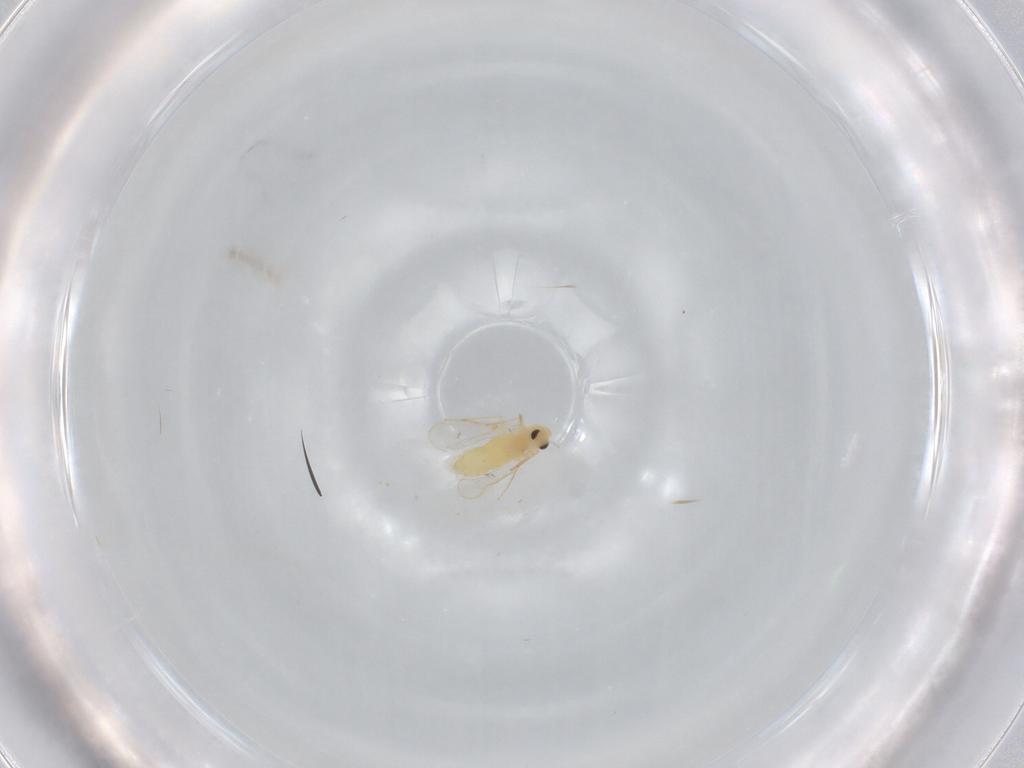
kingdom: Animalia
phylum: Arthropoda
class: Insecta
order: Diptera
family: Chironomidae
